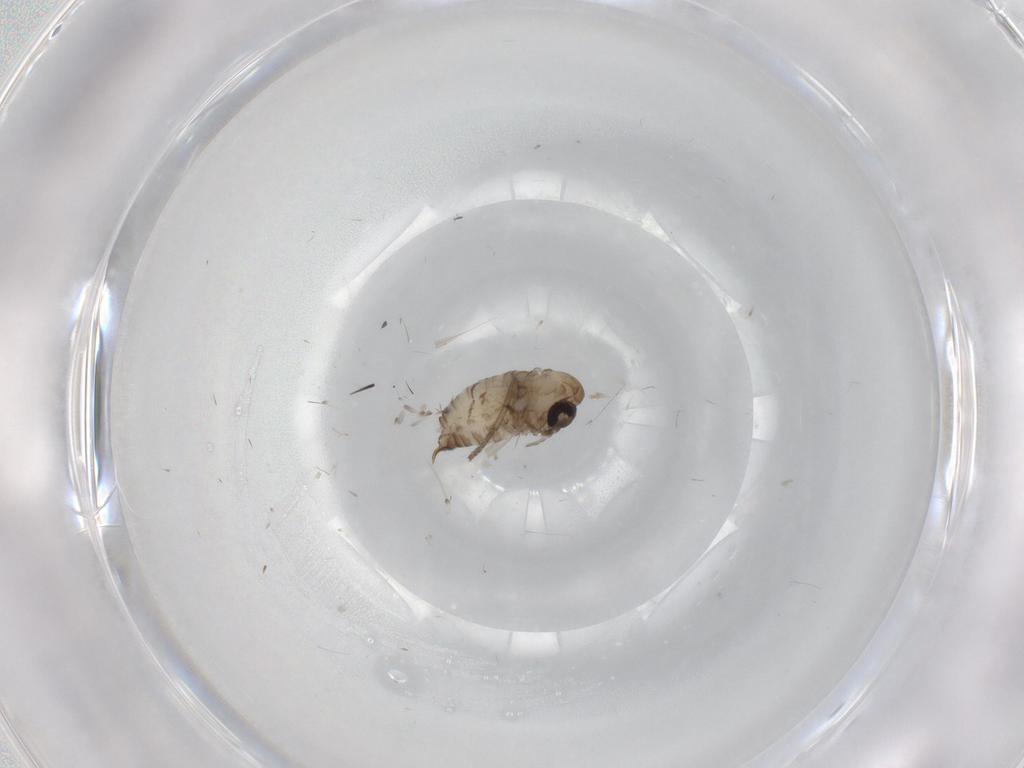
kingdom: Animalia
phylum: Arthropoda
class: Insecta
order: Diptera
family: Psychodidae
